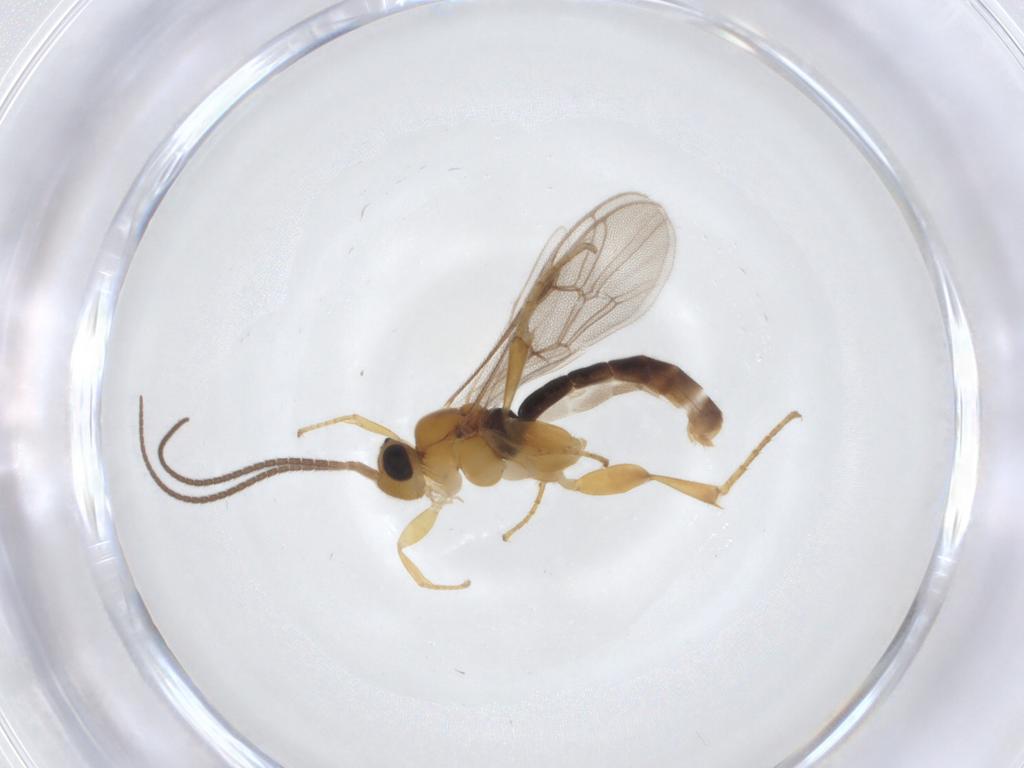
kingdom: Animalia
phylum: Arthropoda
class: Insecta
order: Hymenoptera
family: Ichneumonidae
